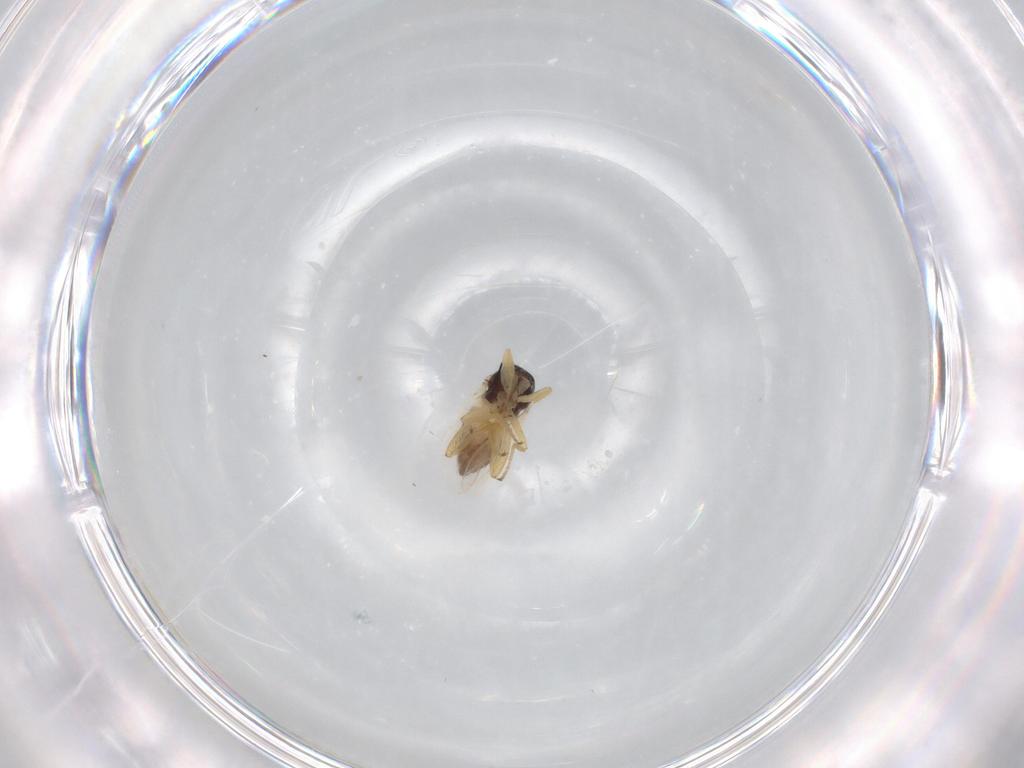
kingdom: Animalia
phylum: Arthropoda
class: Insecta
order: Diptera
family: Hybotidae
